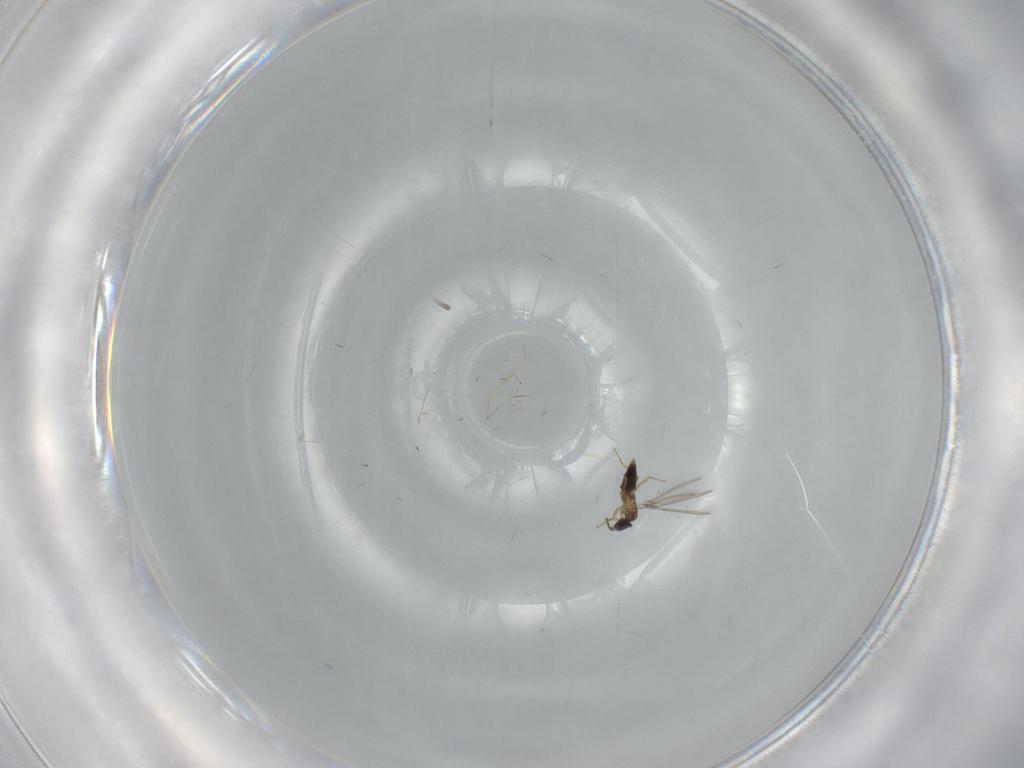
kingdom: Animalia
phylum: Arthropoda
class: Insecta
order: Hymenoptera
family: Mymaridae
